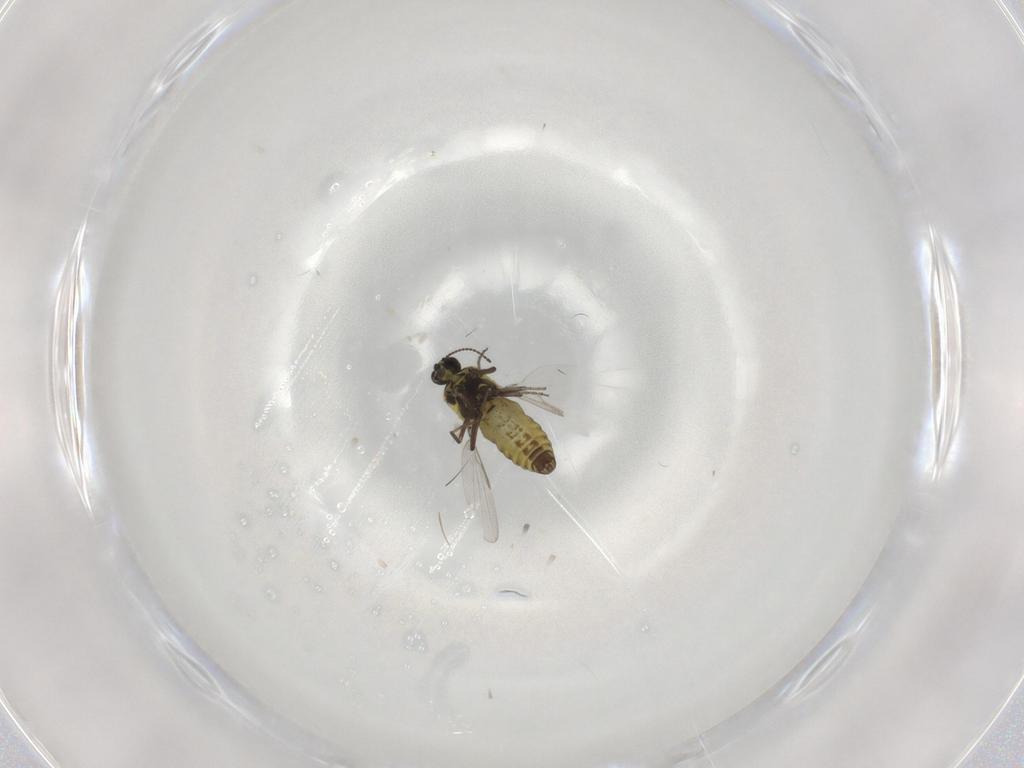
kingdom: Animalia
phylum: Arthropoda
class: Insecta
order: Diptera
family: Ceratopogonidae
